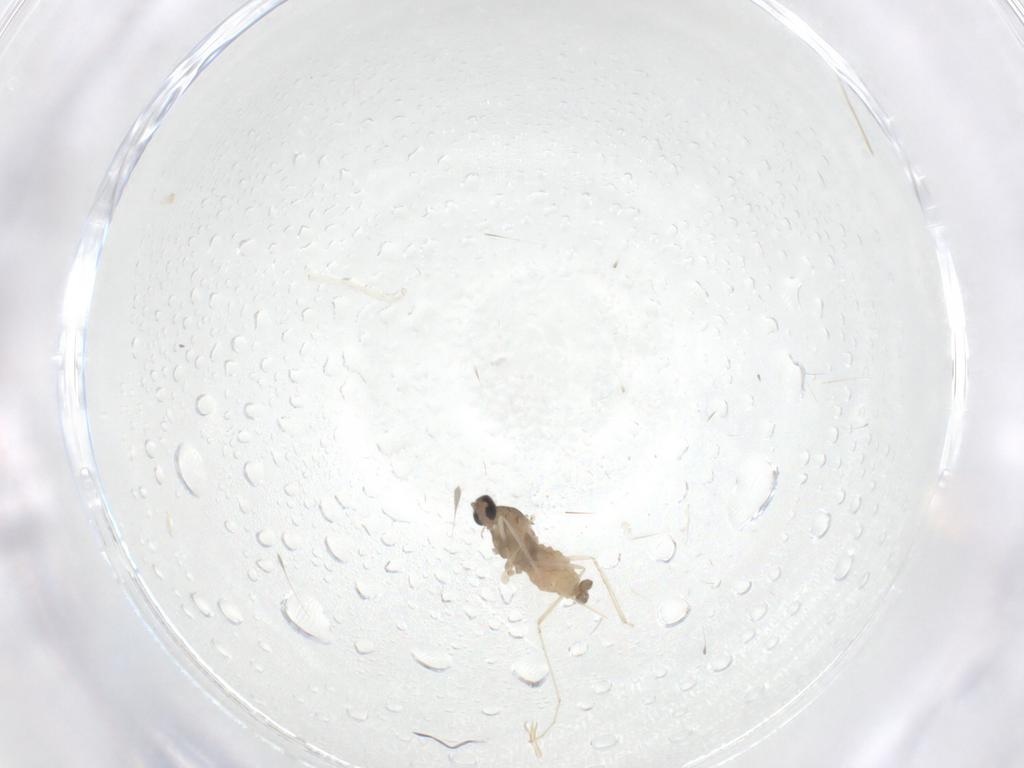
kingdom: Animalia
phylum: Arthropoda
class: Insecta
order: Diptera
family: Cecidomyiidae
